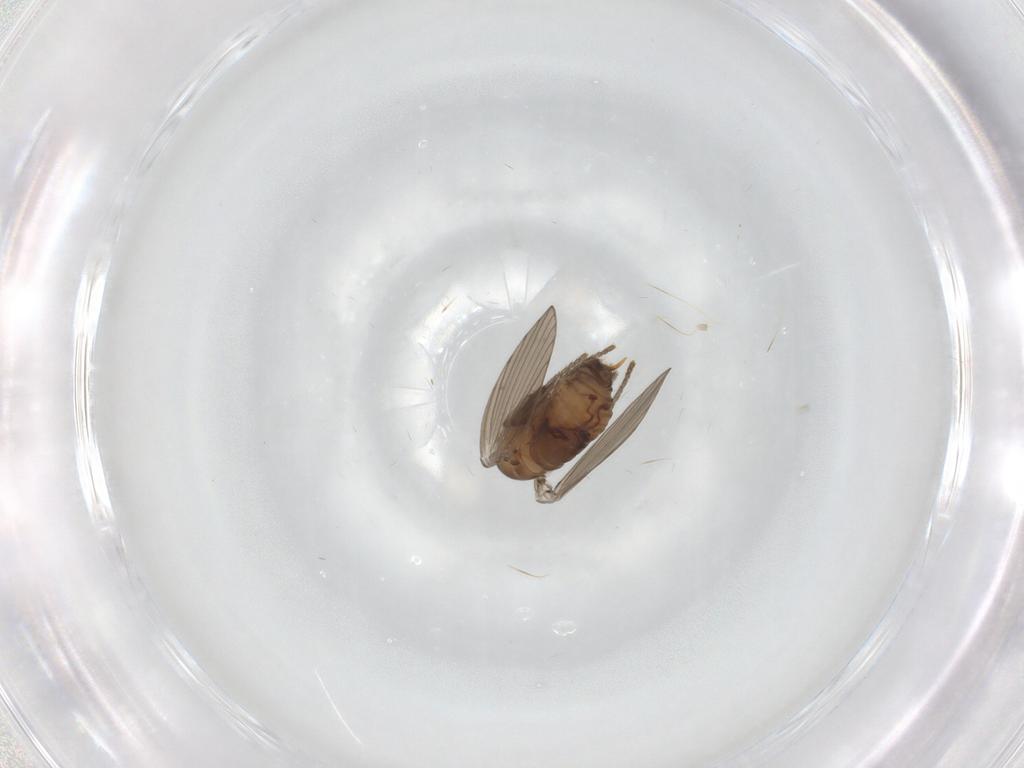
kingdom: Animalia
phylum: Arthropoda
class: Insecta
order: Diptera
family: Psychodidae
